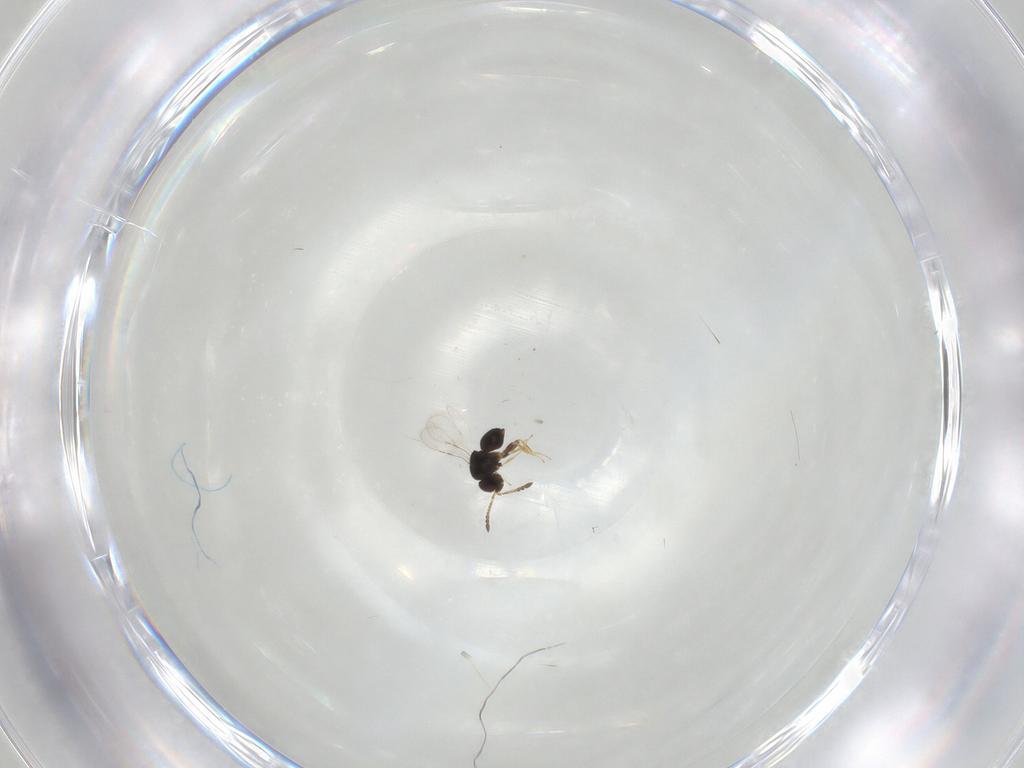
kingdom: Animalia
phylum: Arthropoda
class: Insecta
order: Hymenoptera
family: Ceraphronidae
